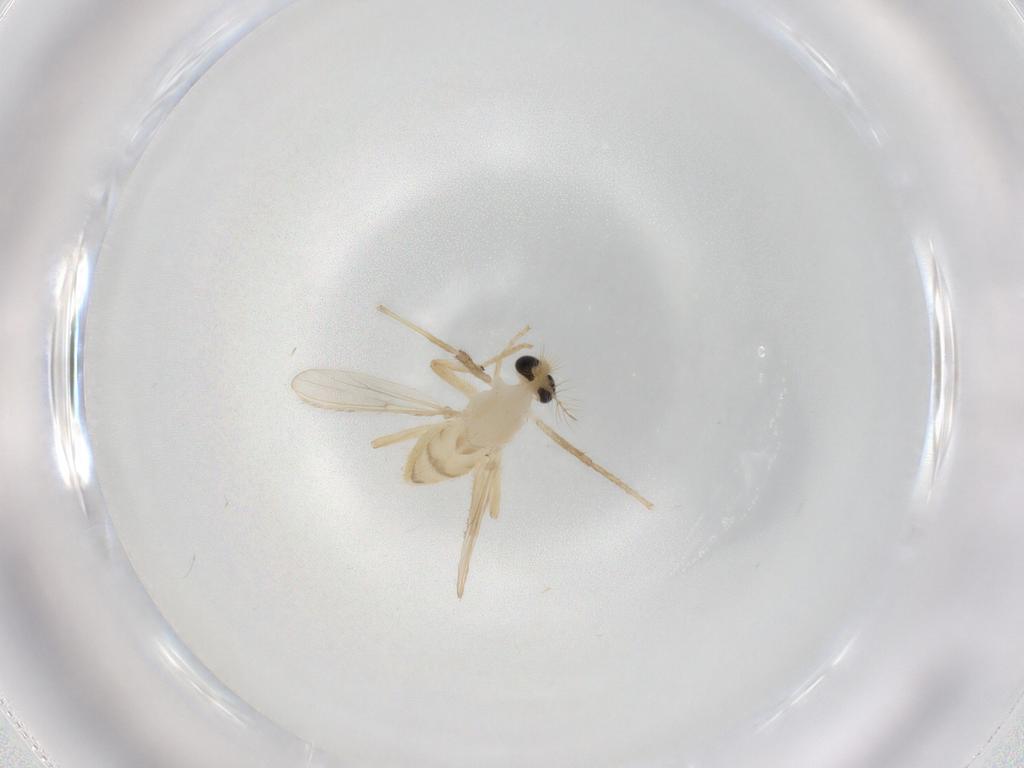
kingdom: Animalia
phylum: Arthropoda
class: Insecta
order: Diptera
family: Chironomidae
